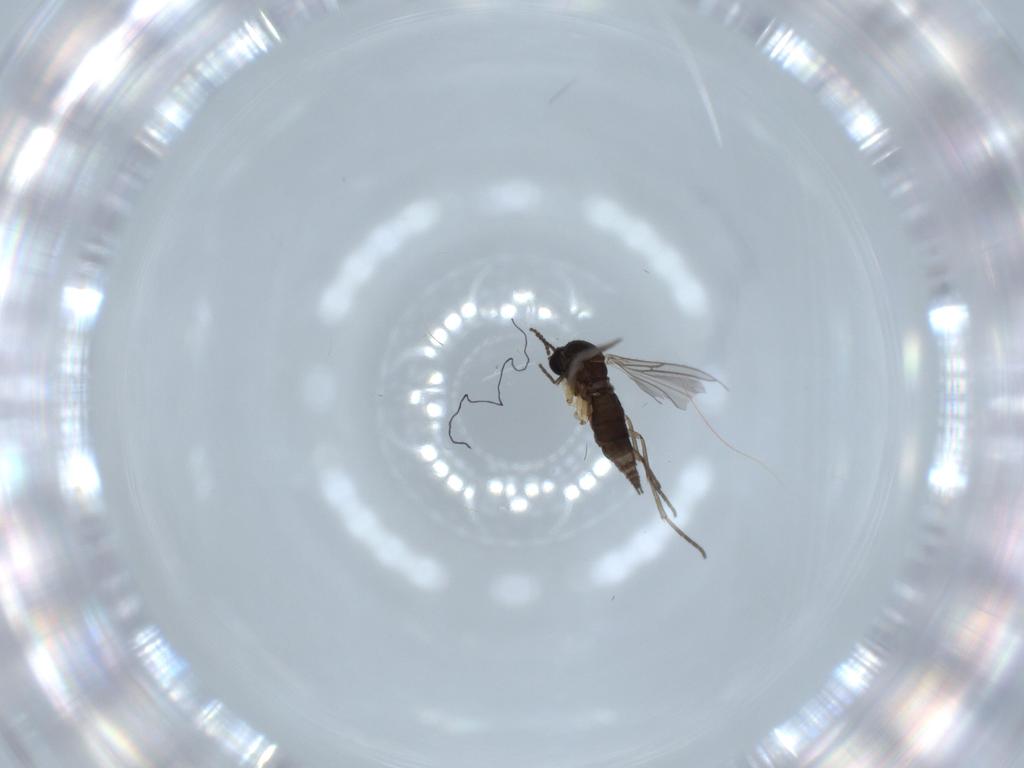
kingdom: Animalia
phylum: Arthropoda
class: Insecta
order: Diptera
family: Sciaridae
